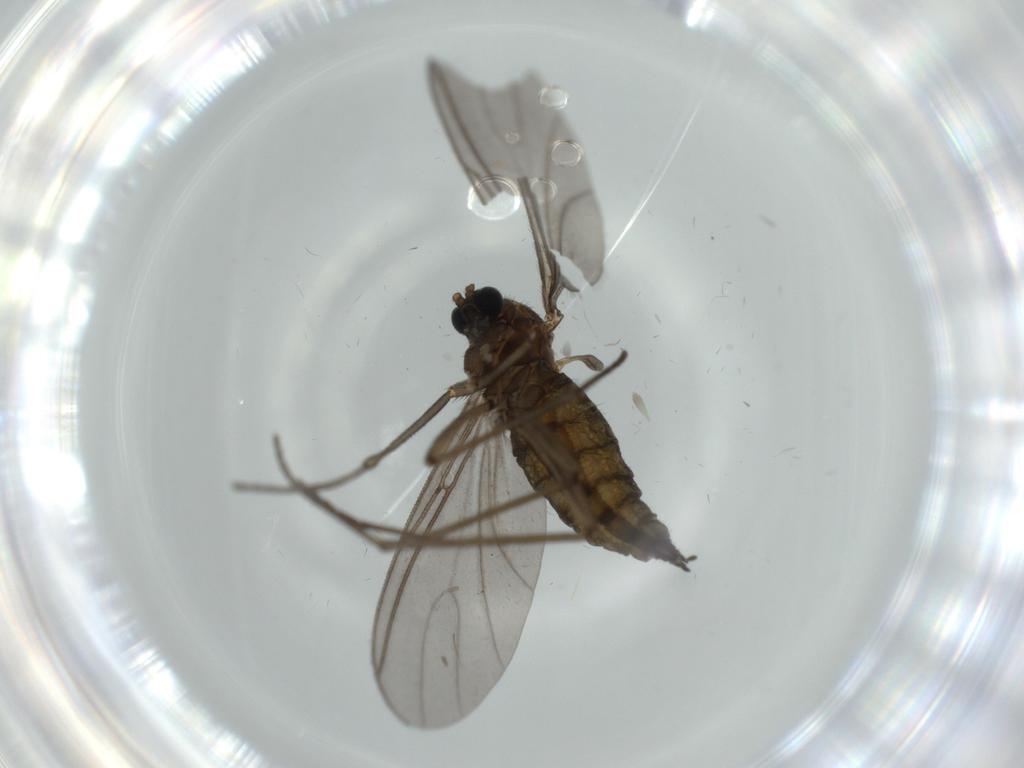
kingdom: Animalia
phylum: Arthropoda
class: Insecta
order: Diptera
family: Sciaridae
